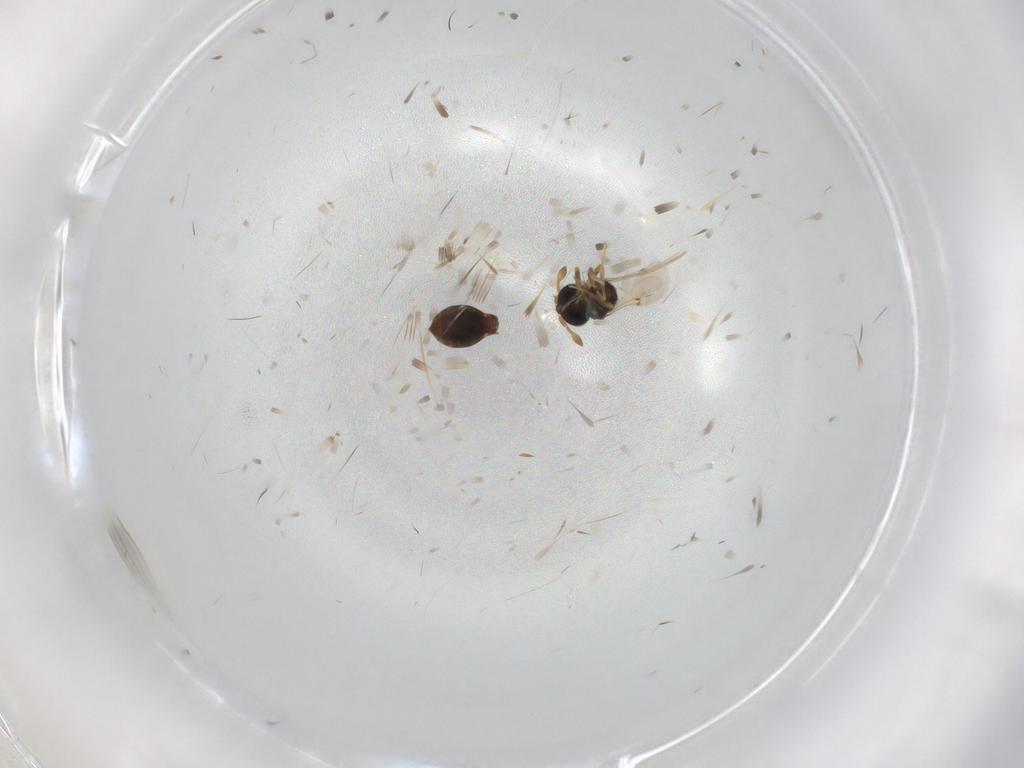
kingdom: Animalia
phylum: Arthropoda
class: Insecta
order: Hymenoptera
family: Scelionidae
